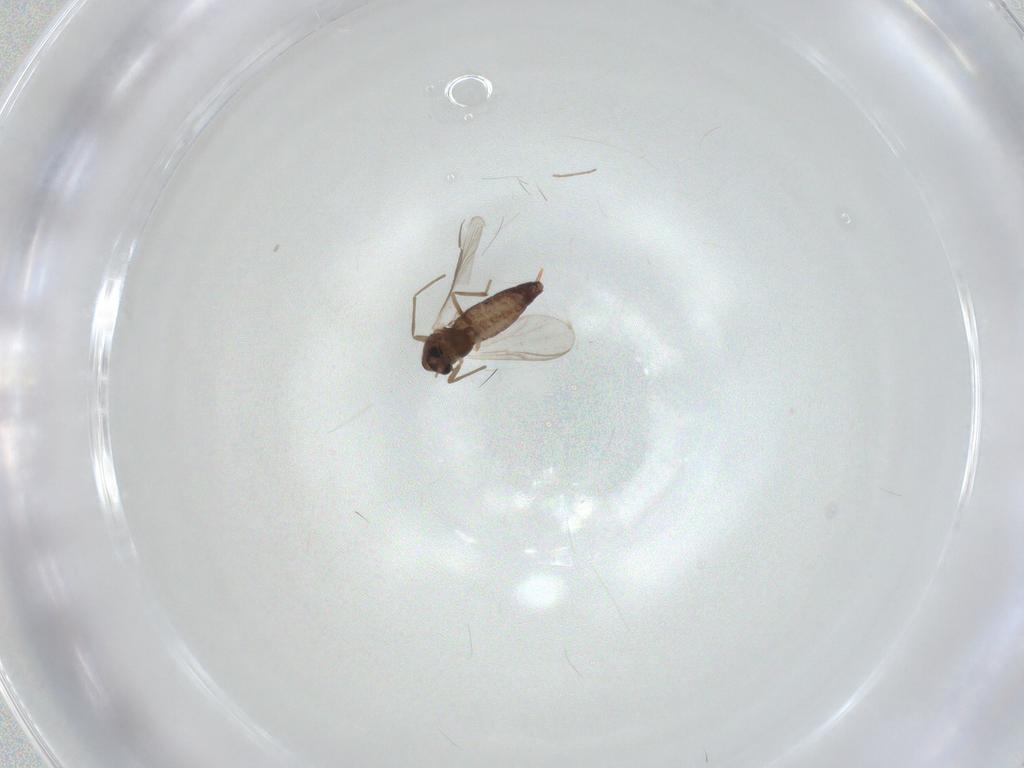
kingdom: Animalia
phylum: Arthropoda
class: Insecta
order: Diptera
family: Chironomidae
